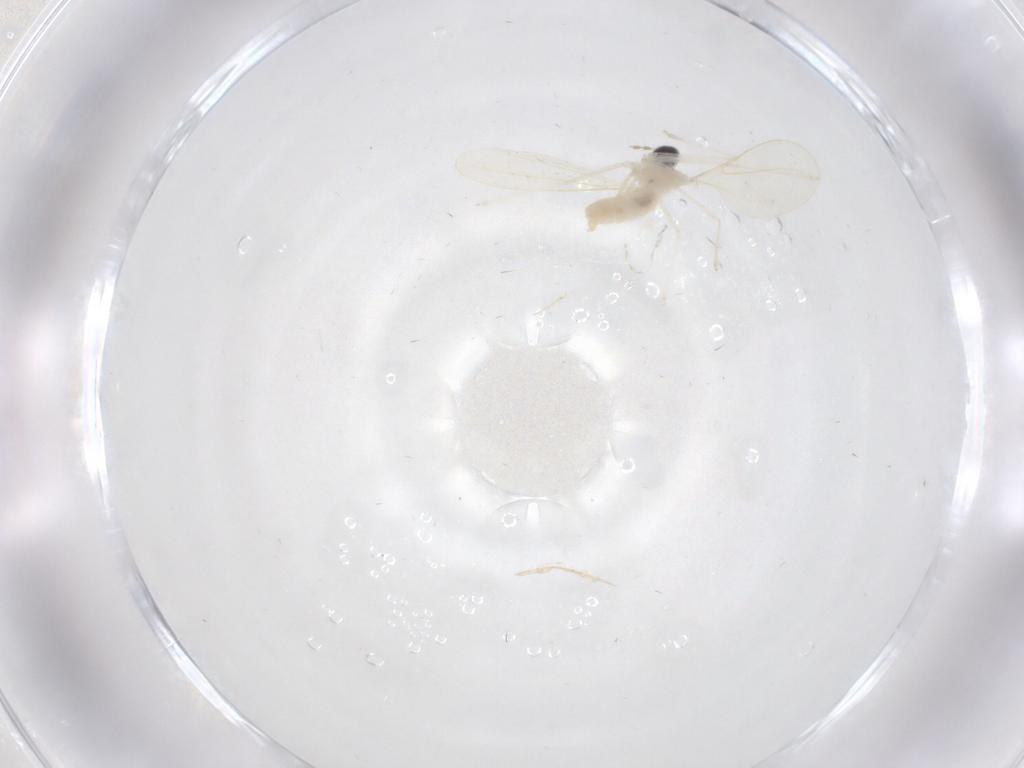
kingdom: Animalia
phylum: Arthropoda
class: Insecta
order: Diptera
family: Cecidomyiidae
